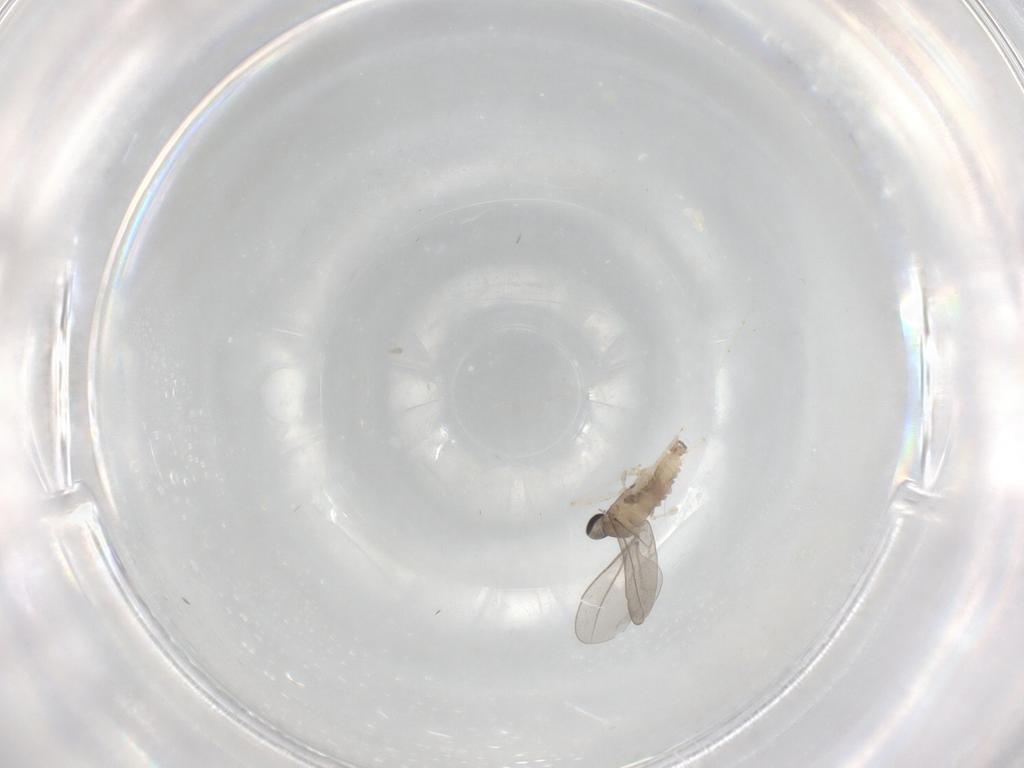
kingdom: Animalia
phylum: Arthropoda
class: Insecta
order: Diptera
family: Cecidomyiidae
